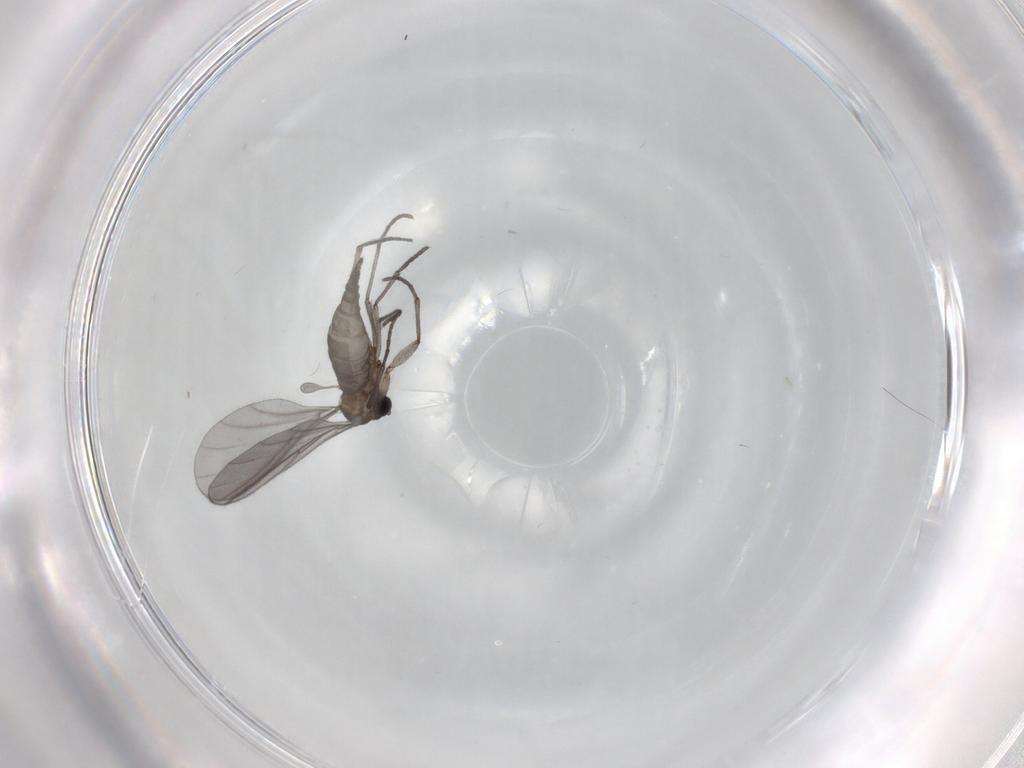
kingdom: Animalia
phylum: Arthropoda
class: Insecta
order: Diptera
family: Sciaridae
